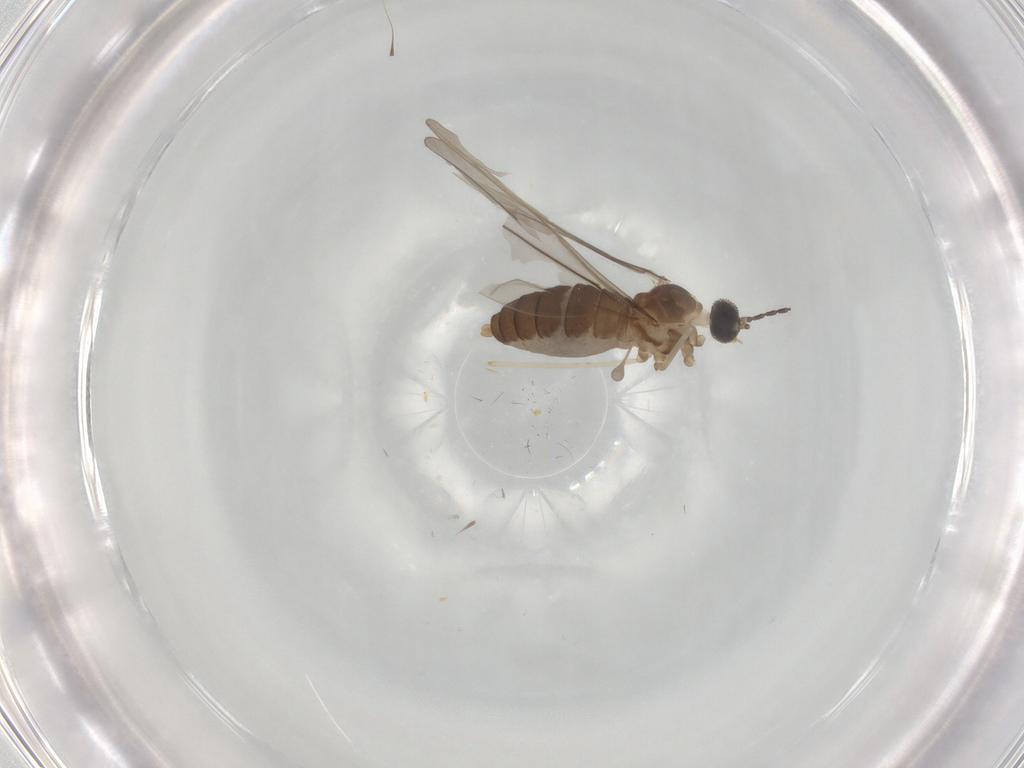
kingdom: Animalia
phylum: Arthropoda
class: Insecta
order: Diptera
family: Cecidomyiidae
